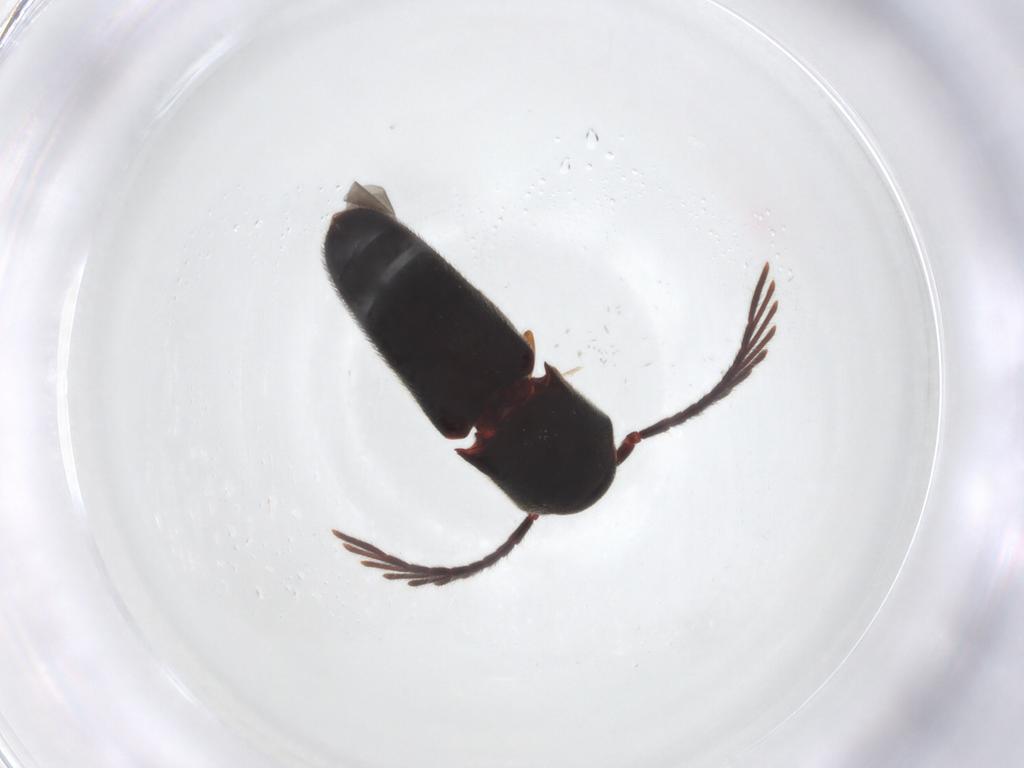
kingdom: Animalia
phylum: Arthropoda
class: Insecta
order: Coleoptera
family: Eucnemidae
